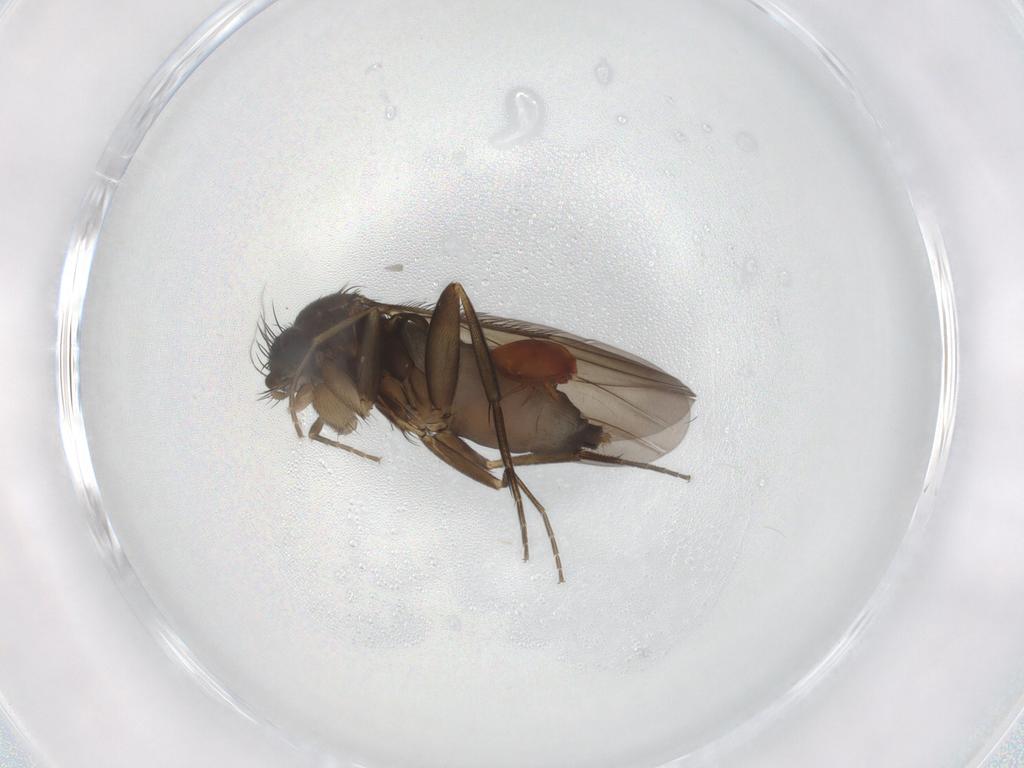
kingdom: Animalia
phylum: Arthropoda
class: Insecta
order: Diptera
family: Phoridae
